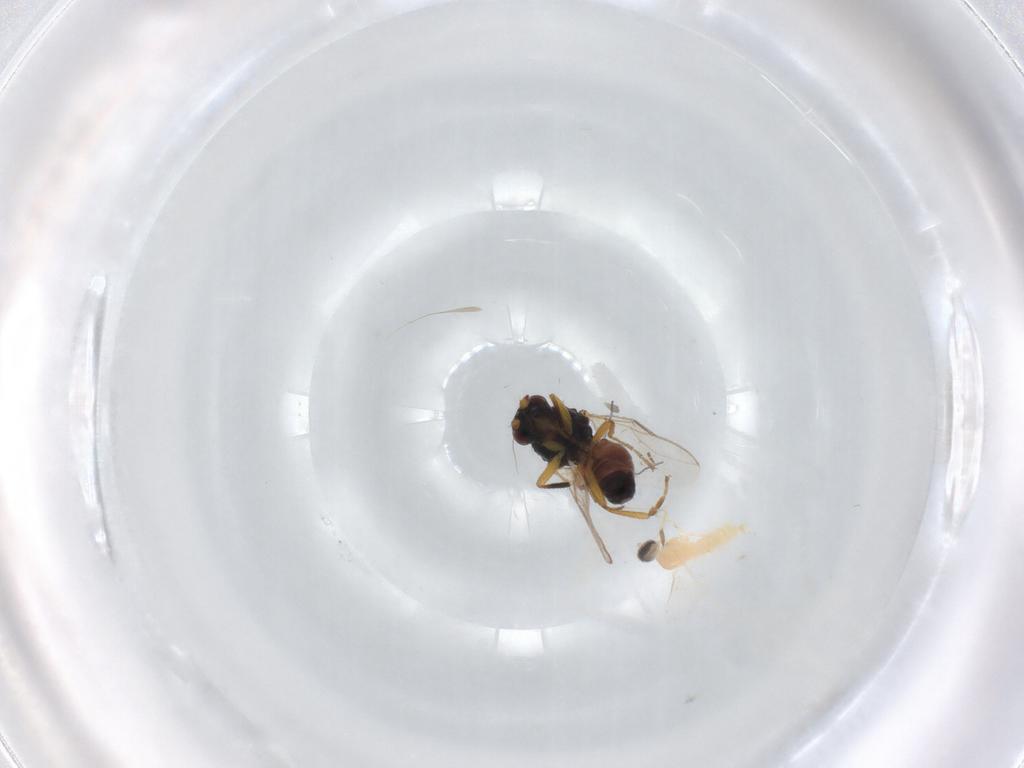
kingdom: Animalia
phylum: Arthropoda
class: Insecta
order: Diptera
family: Sphaeroceridae
